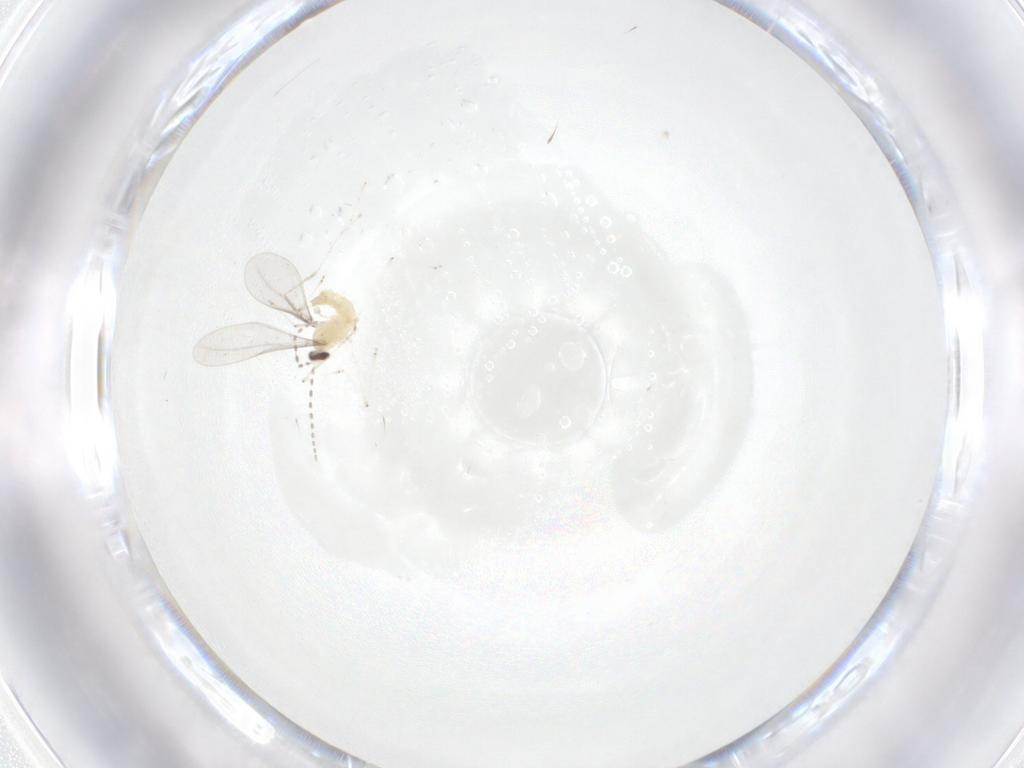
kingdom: Animalia
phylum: Arthropoda
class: Insecta
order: Diptera
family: Cecidomyiidae
